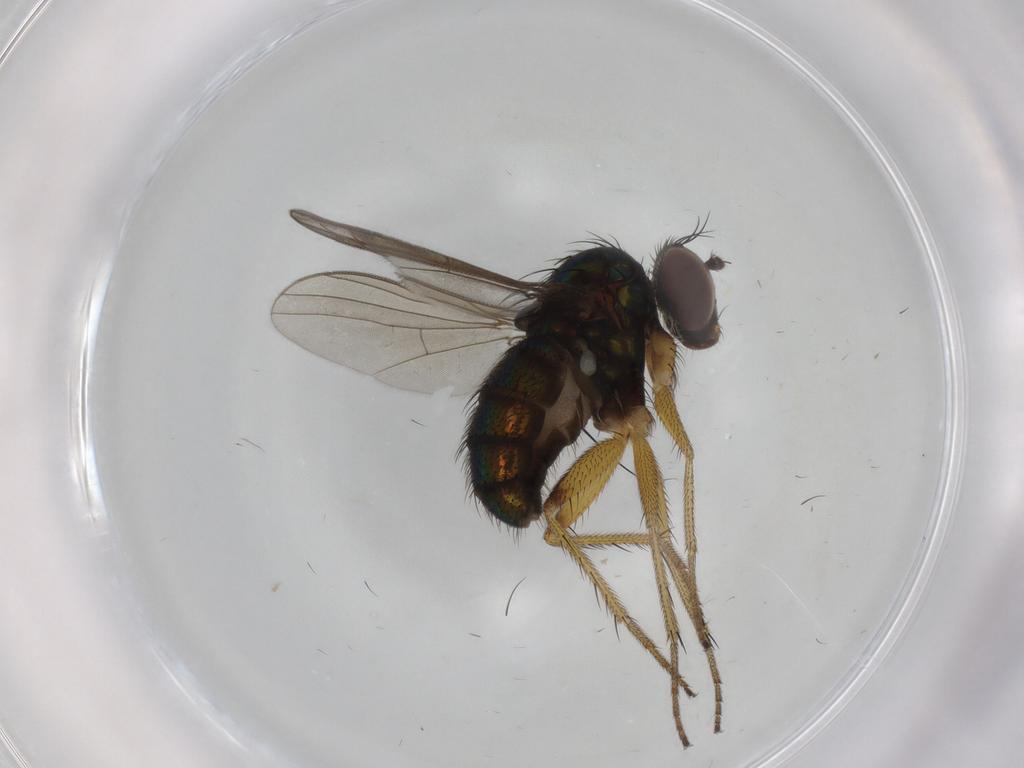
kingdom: Animalia
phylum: Arthropoda
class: Insecta
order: Diptera
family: Dolichopodidae
